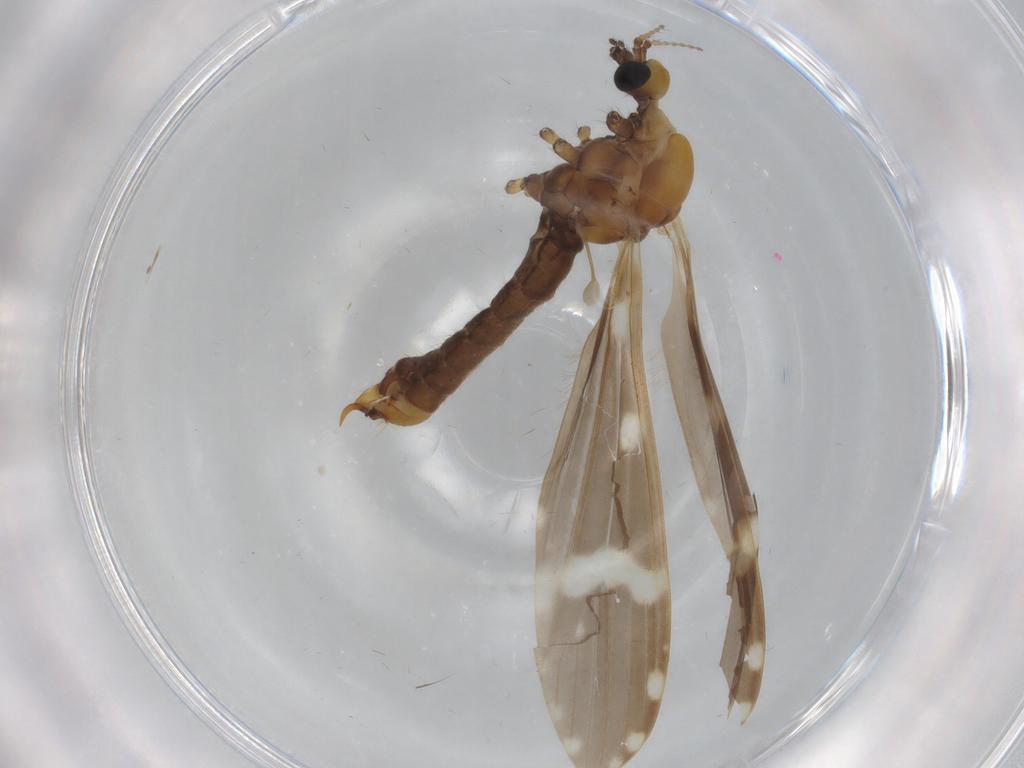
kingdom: Animalia
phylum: Arthropoda
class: Insecta
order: Diptera
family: Limoniidae
